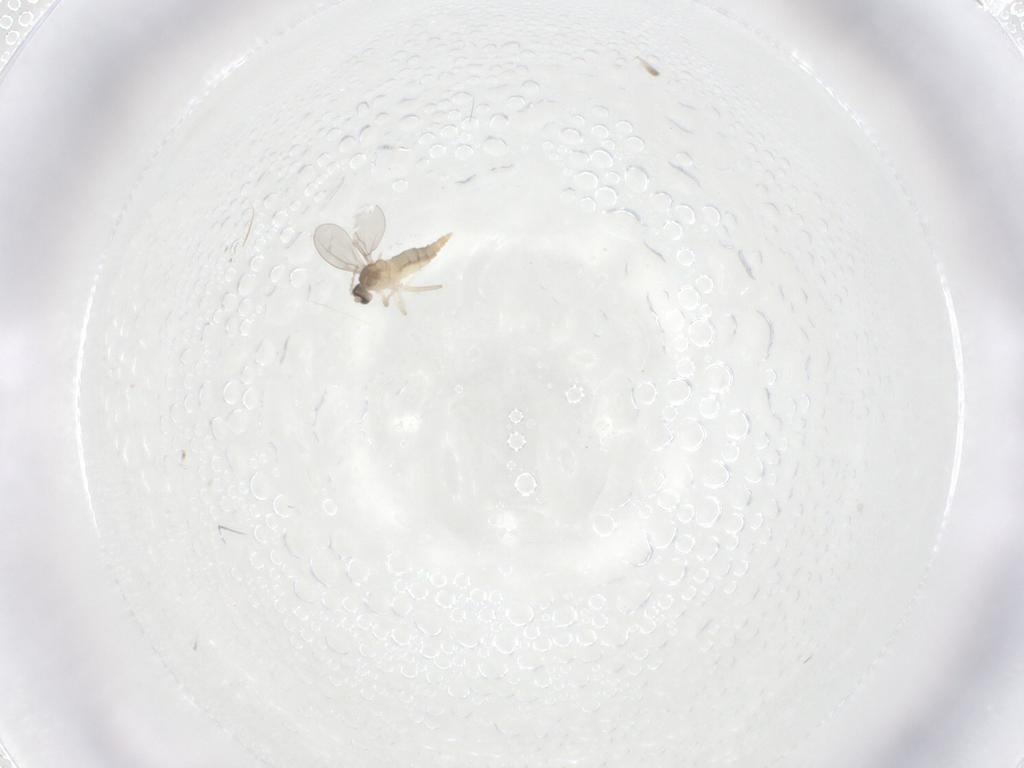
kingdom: Animalia
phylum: Arthropoda
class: Insecta
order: Diptera
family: Cecidomyiidae
